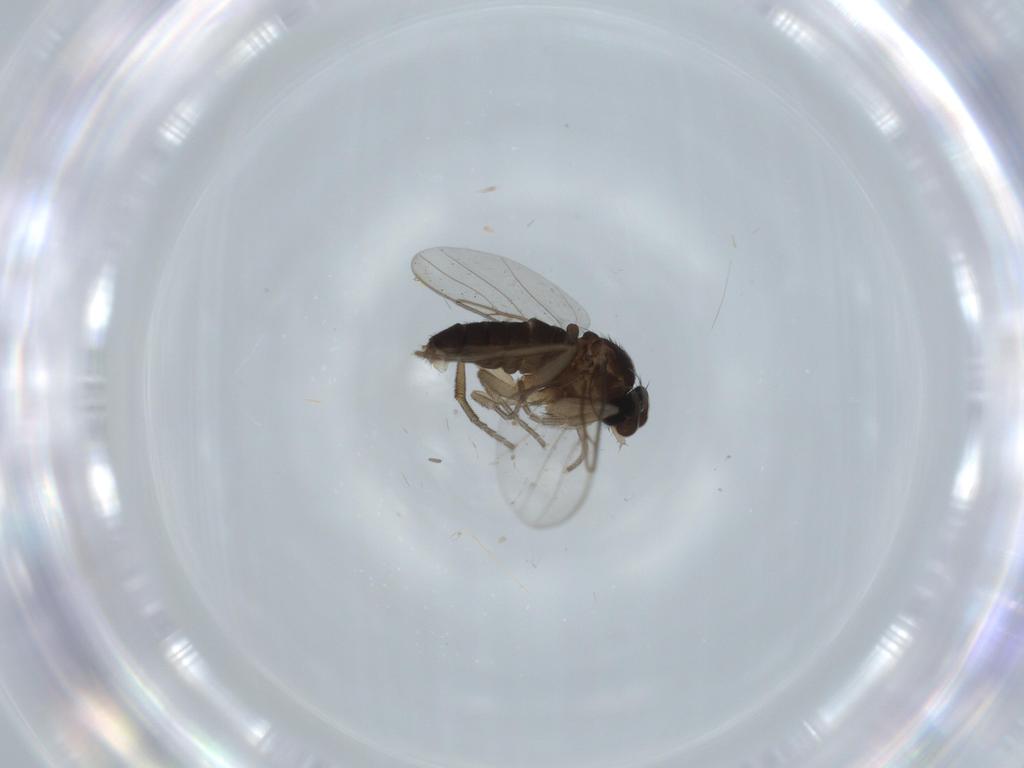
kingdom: Animalia
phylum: Arthropoda
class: Insecta
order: Diptera
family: Phoridae
